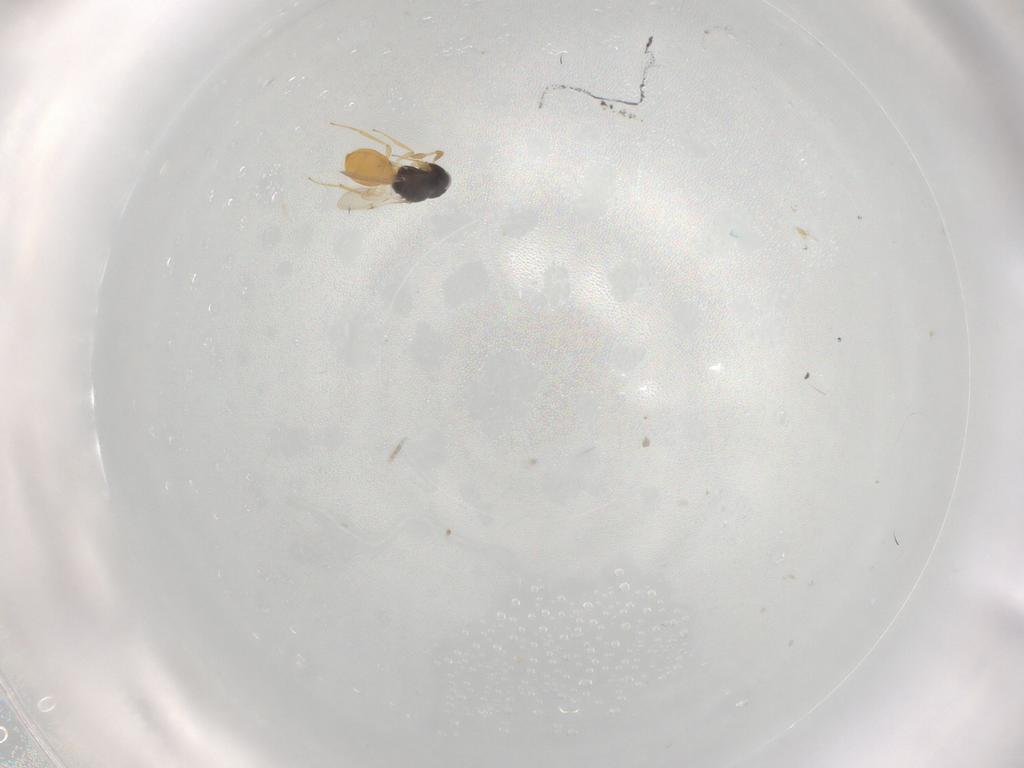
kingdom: Animalia
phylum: Arthropoda
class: Insecta
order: Hymenoptera
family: Scelionidae
